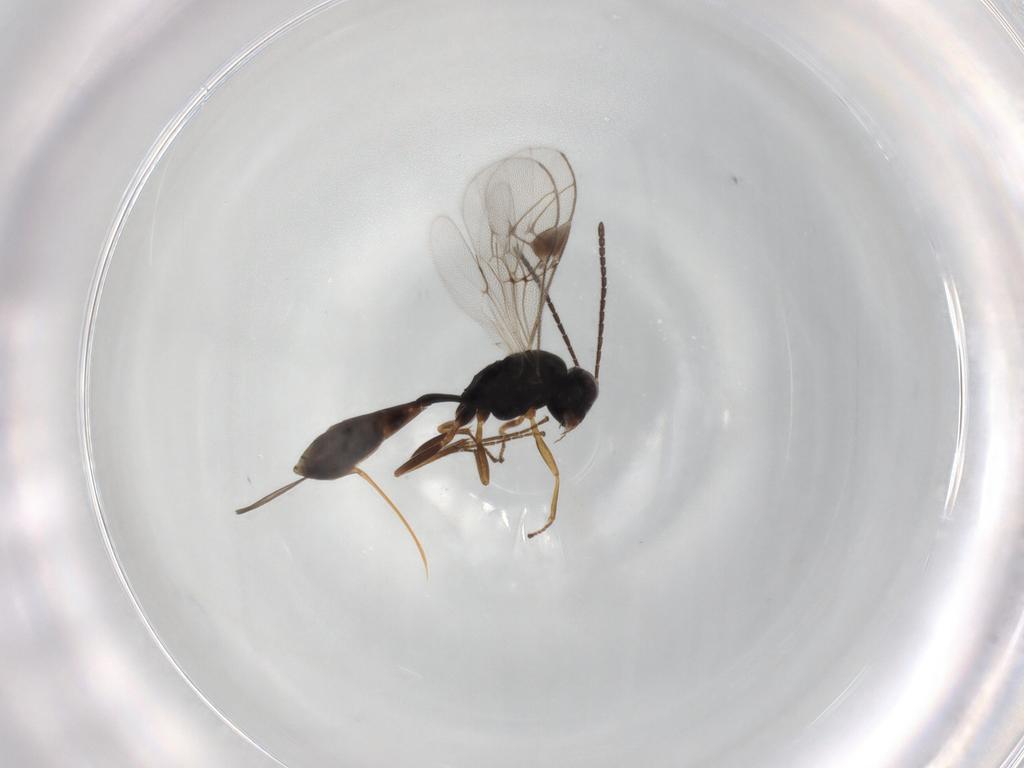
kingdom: Animalia
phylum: Arthropoda
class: Insecta
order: Hymenoptera
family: Ichneumonidae
